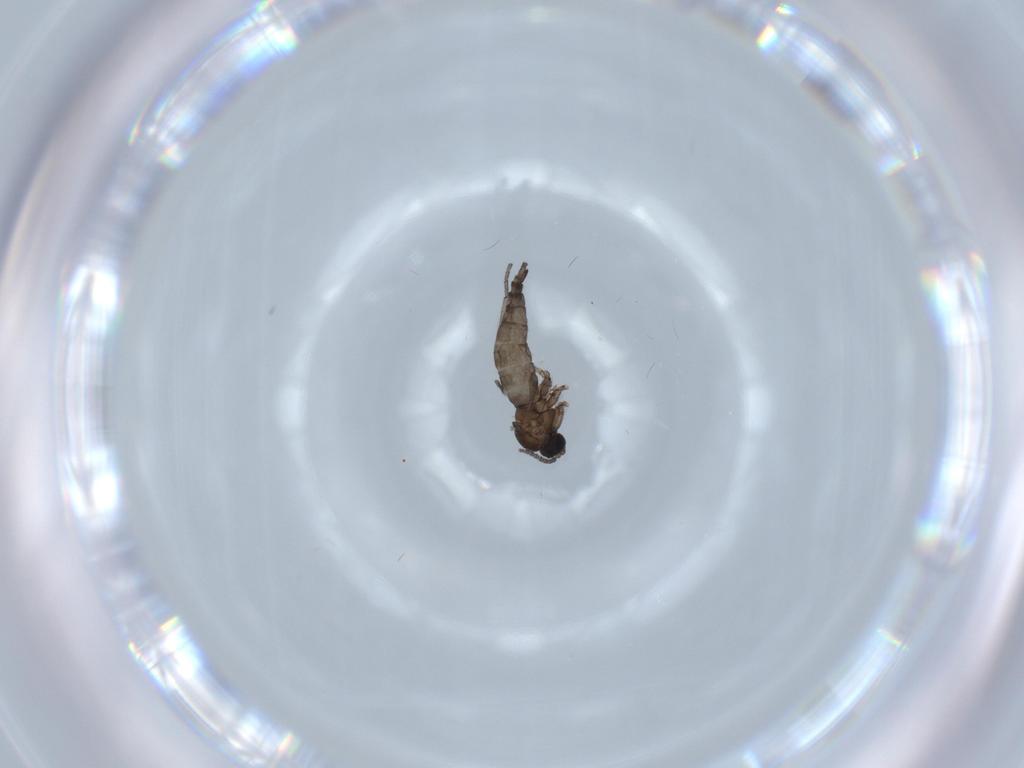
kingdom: Animalia
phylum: Arthropoda
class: Insecta
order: Diptera
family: Sciaridae
